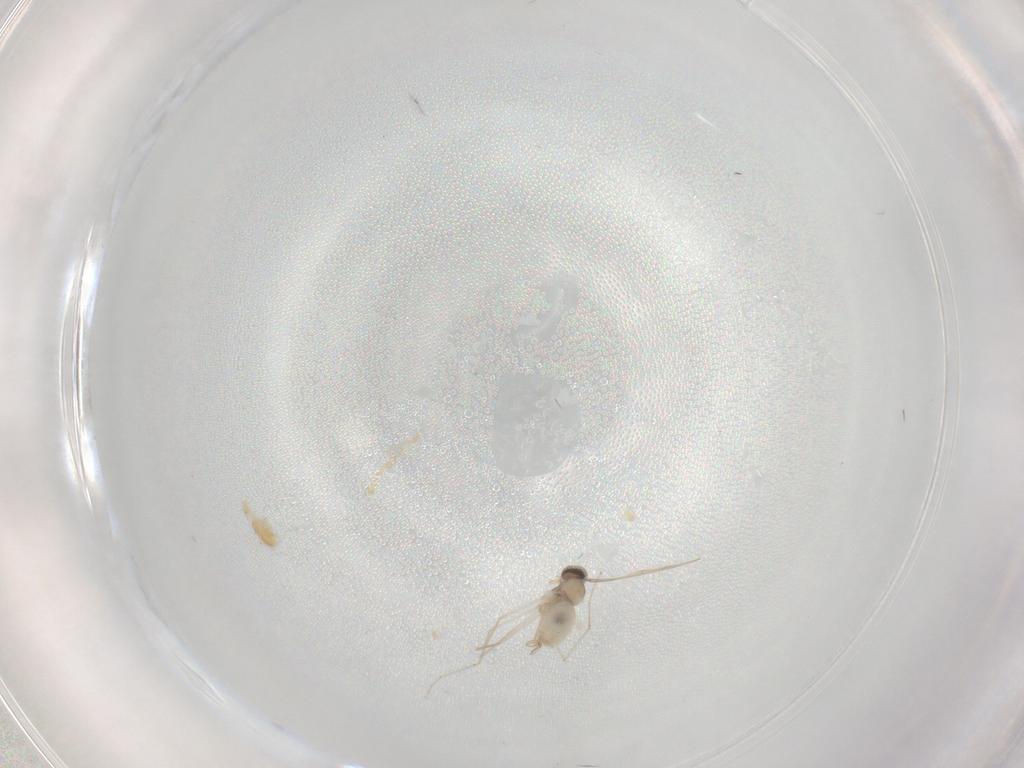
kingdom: Animalia
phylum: Arthropoda
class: Insecta
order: Diptera
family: Cecidomyiidae
